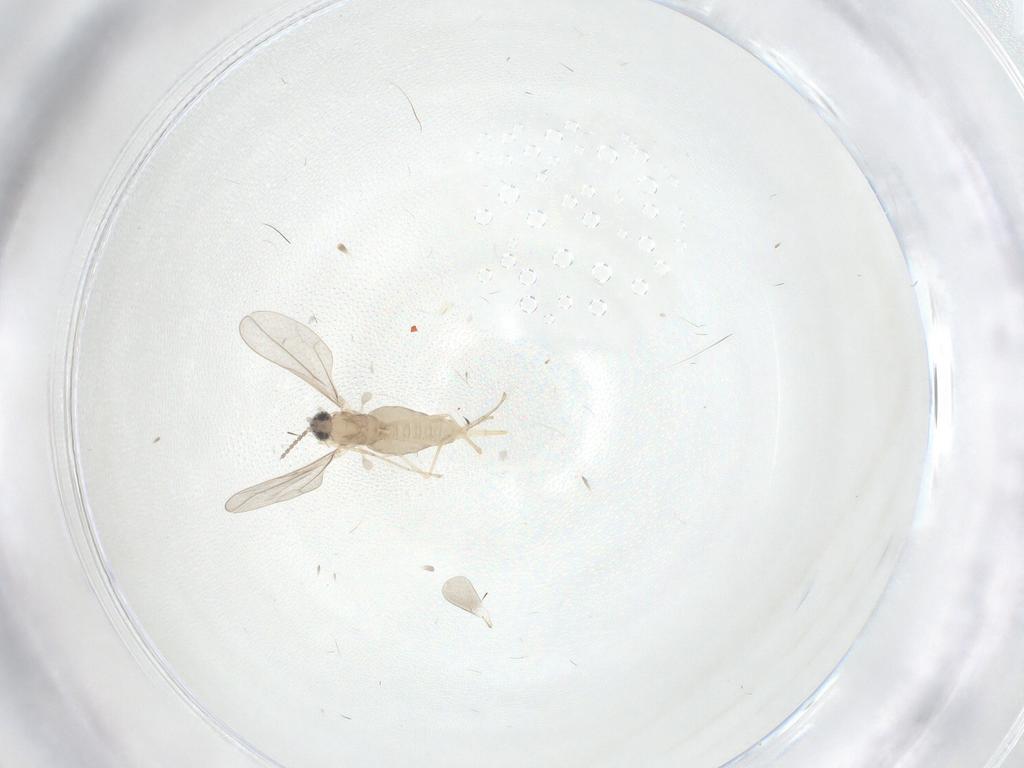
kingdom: Animalia
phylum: Arthropoda
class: Insecta
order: Diptera
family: Cecidomyiidae
